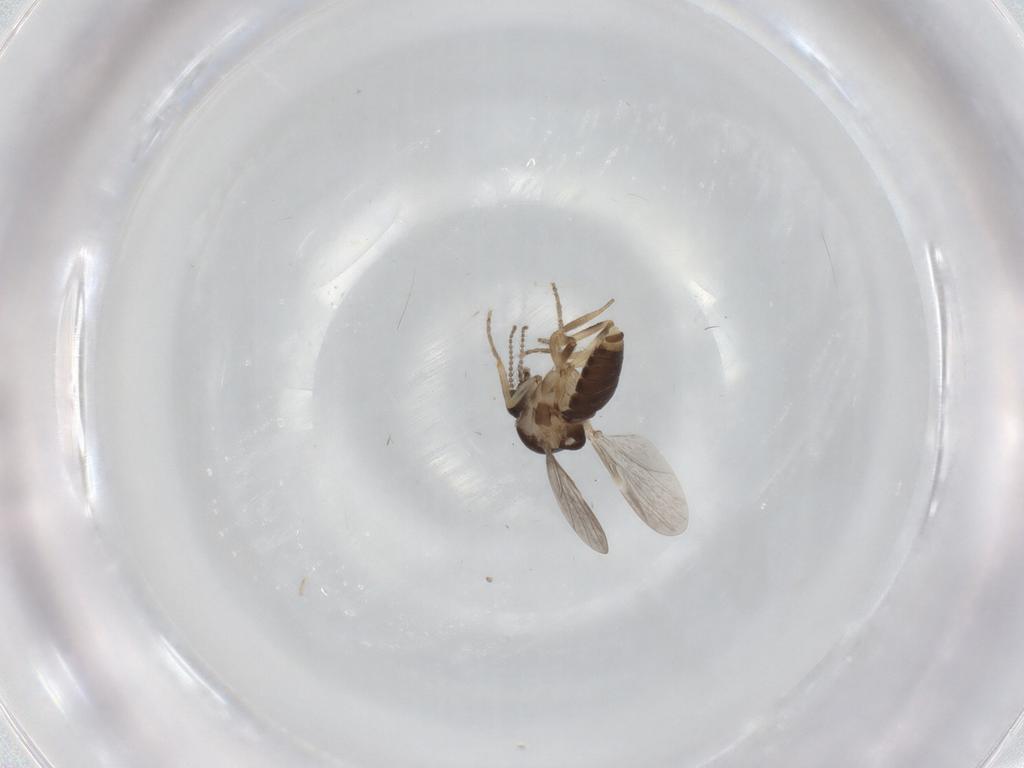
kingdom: Animalia
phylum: Arthropoda
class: Insecta
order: Diptera
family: Ceratopogonidae
